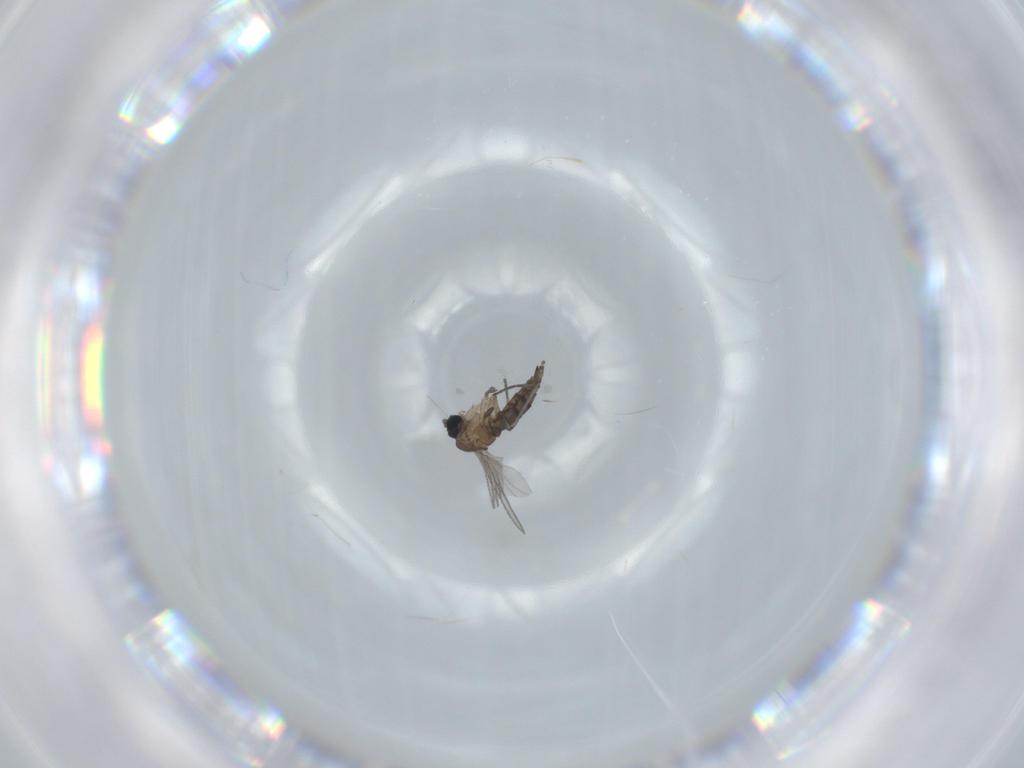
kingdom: Animalia
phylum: Arthropoda
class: Insecta
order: Diptera
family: Sciaridae
